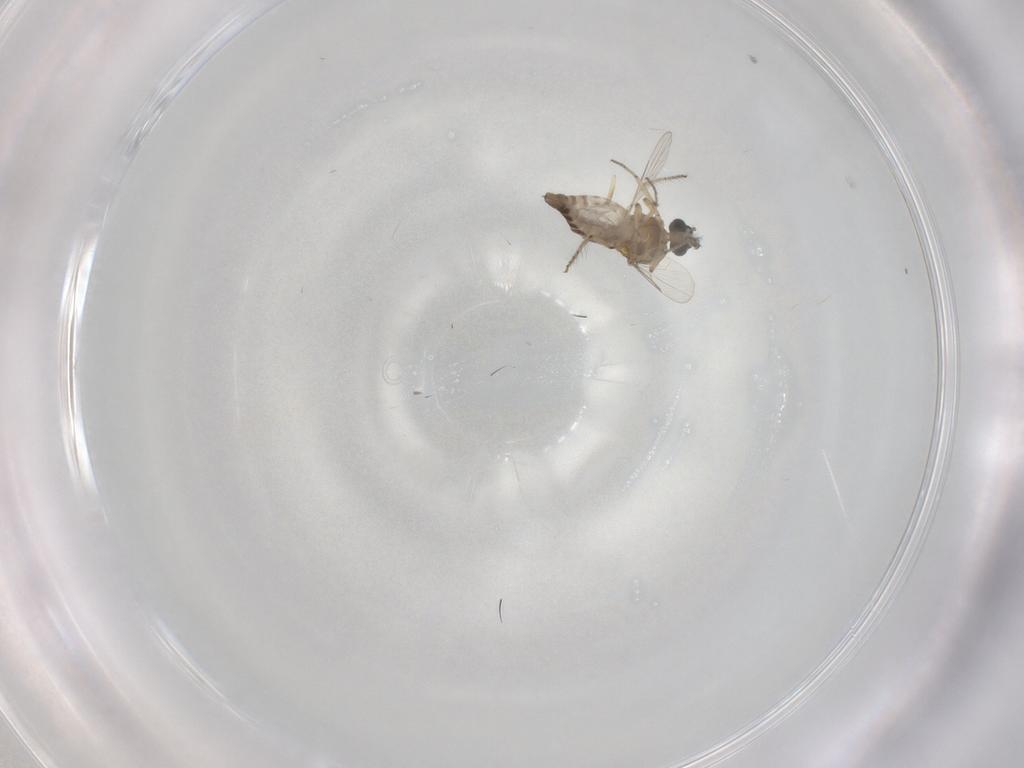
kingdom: Animalia
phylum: Arthropoda
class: Insecta
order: Diptera
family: Ceratopogonidae
